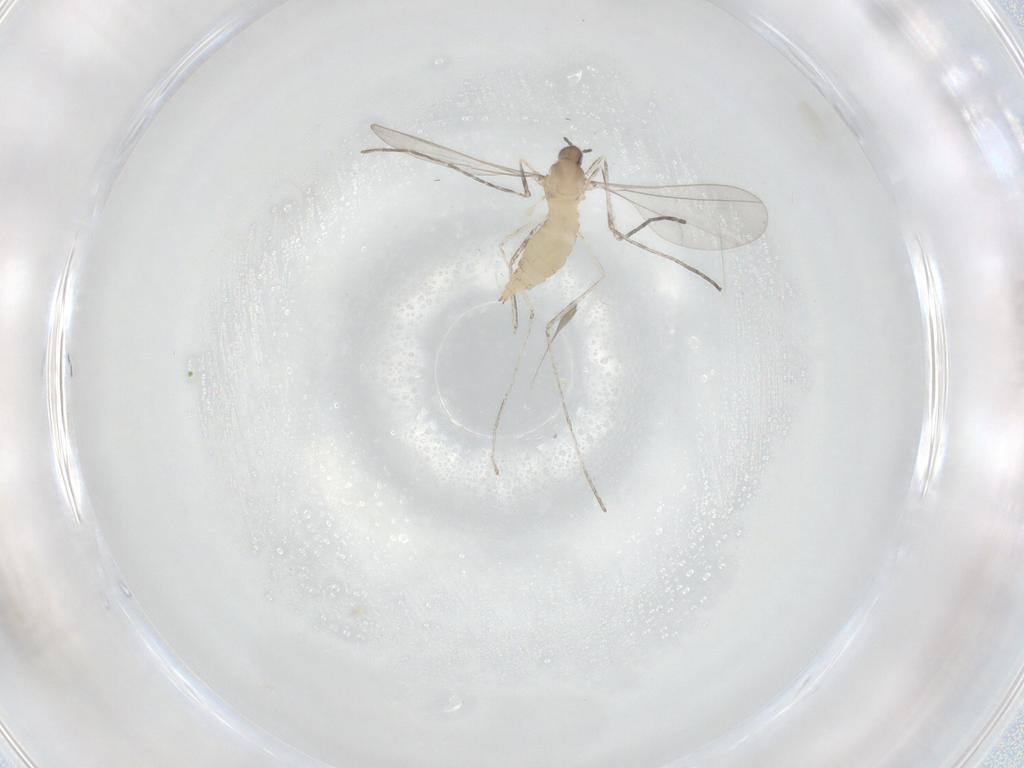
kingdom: Animalia
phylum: Arthropoda
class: Insecta
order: Diptera
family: Cecidomyiidae
